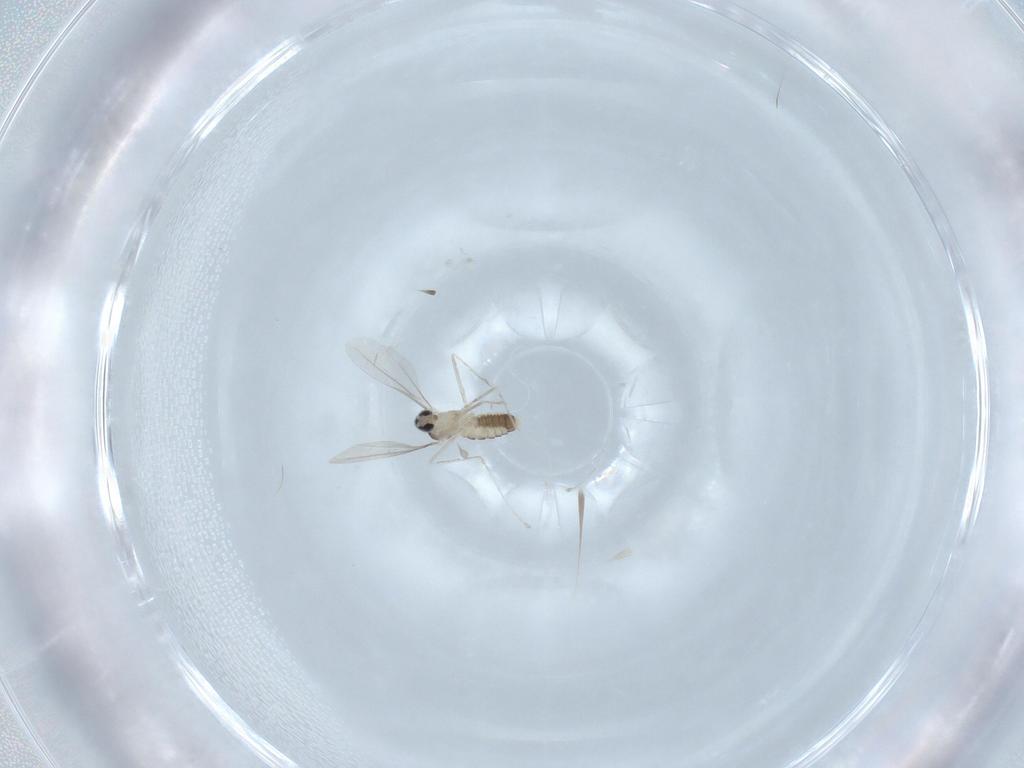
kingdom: Animalia
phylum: Arthropoda
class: Insecta
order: Diptera
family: Cecidomyiidae
